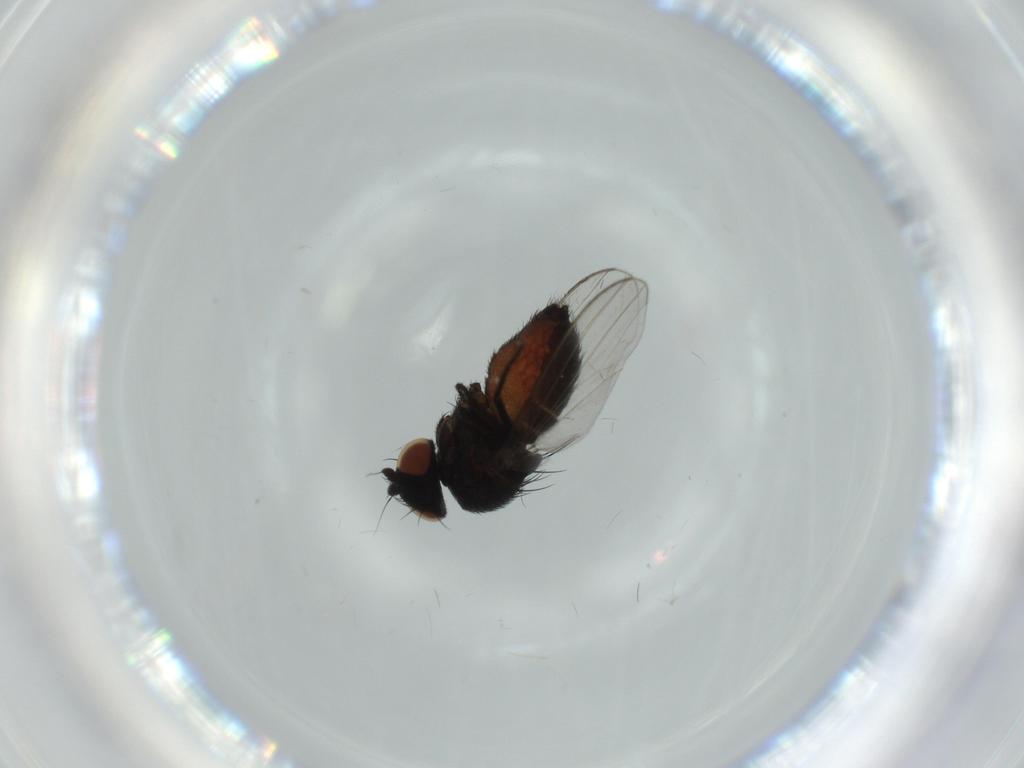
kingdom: Animalia
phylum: Arthropoda
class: Insecta
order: Diptera
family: Milichiidae
